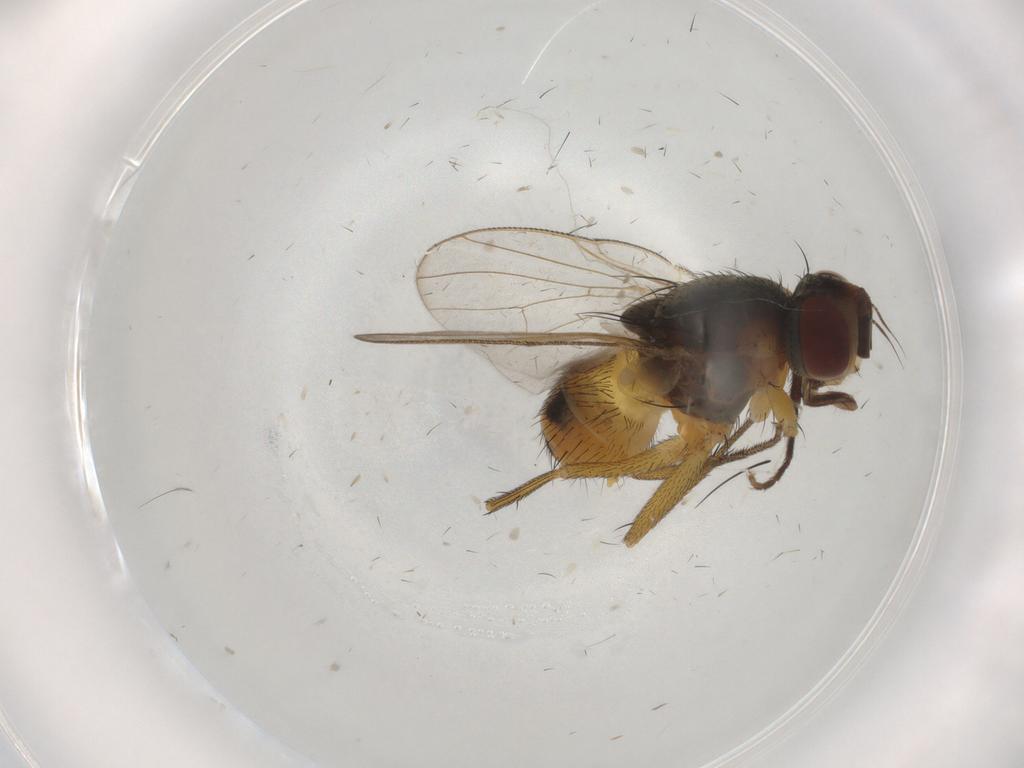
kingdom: Animalia
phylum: Arthropoda
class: Insecta
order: Diptera
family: Muscidae
